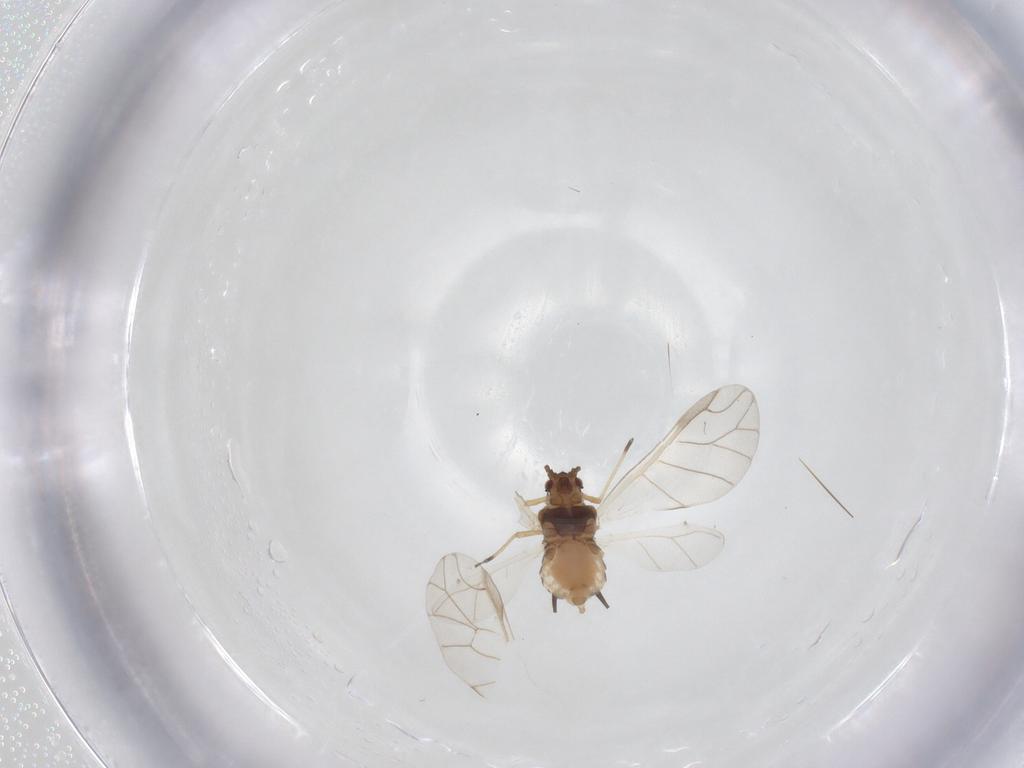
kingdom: Animalia
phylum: Arthropoda
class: Insecta
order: Hemiptera
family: Aphididae
